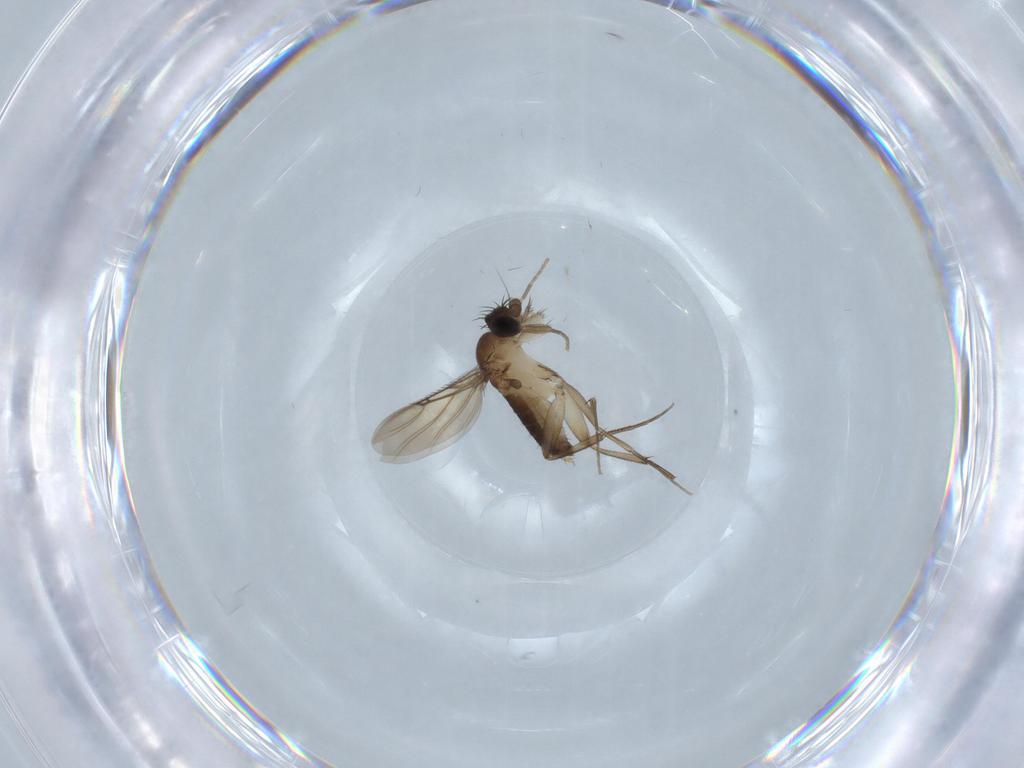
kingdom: Animalia
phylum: Arthropoda
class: Insecta
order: Diptera
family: Phoridae
